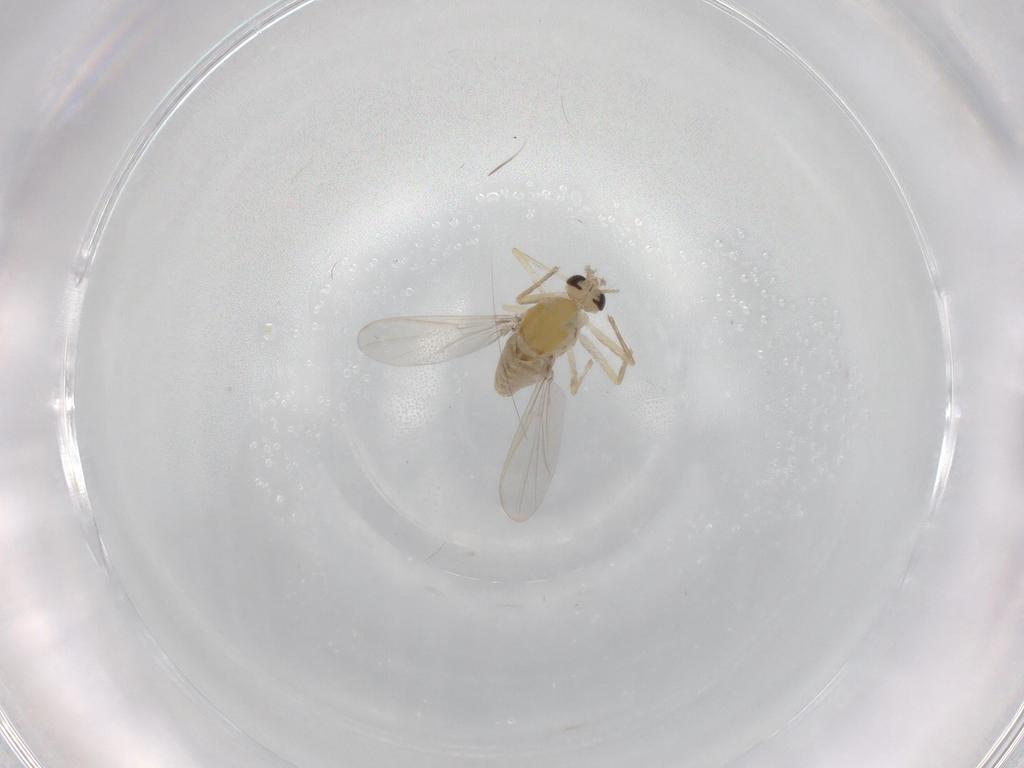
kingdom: Animalia
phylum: Arthropoda
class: Insecta
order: Diptera
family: Chironomidae
